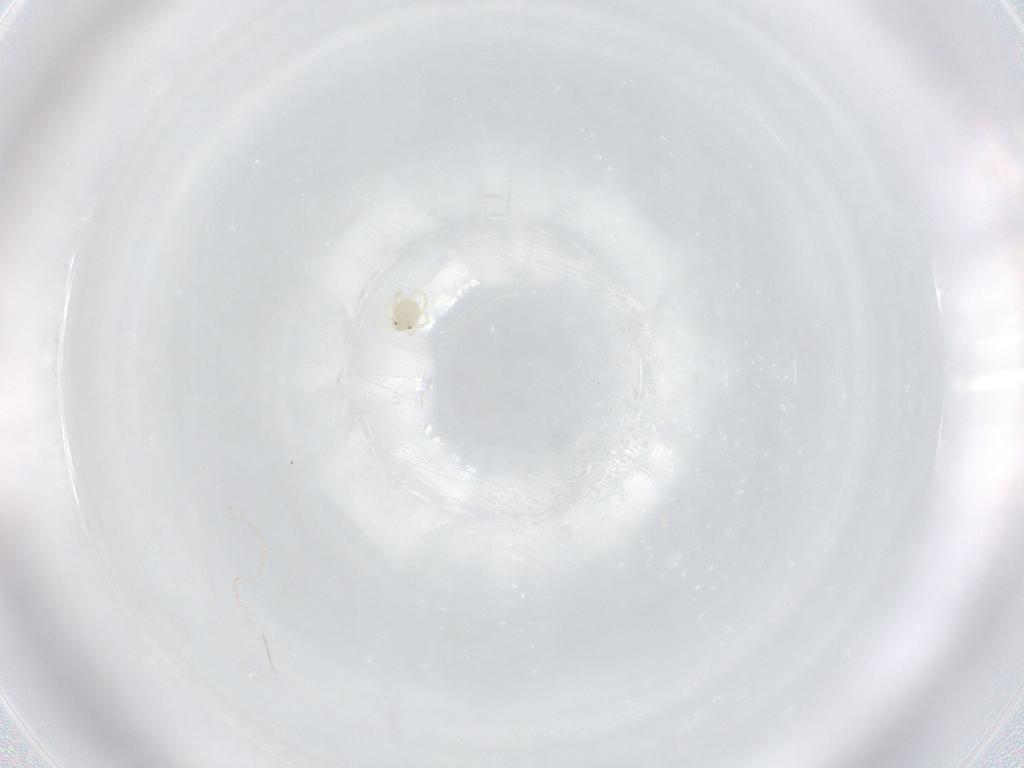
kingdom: Animalia
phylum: Arthropoda
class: Arachnida
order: Trombidiformes
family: Sperchontidae
